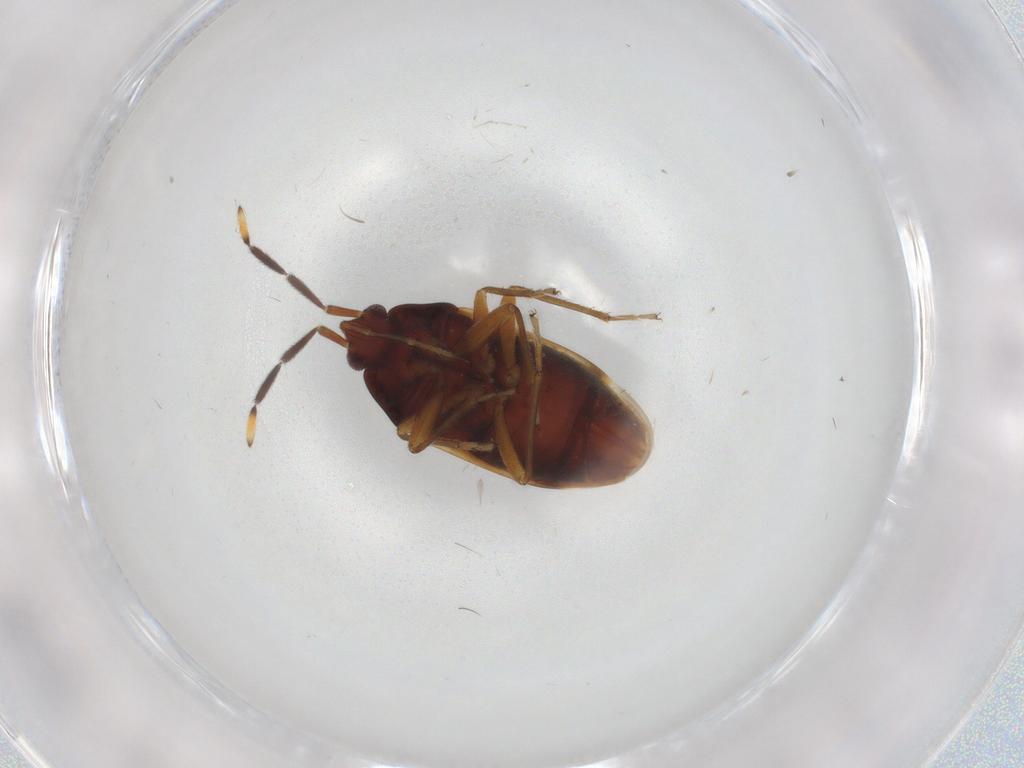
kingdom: Animalia
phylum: Arthropoda
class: Insecta
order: Hemiptera
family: Rhyparochromidae
